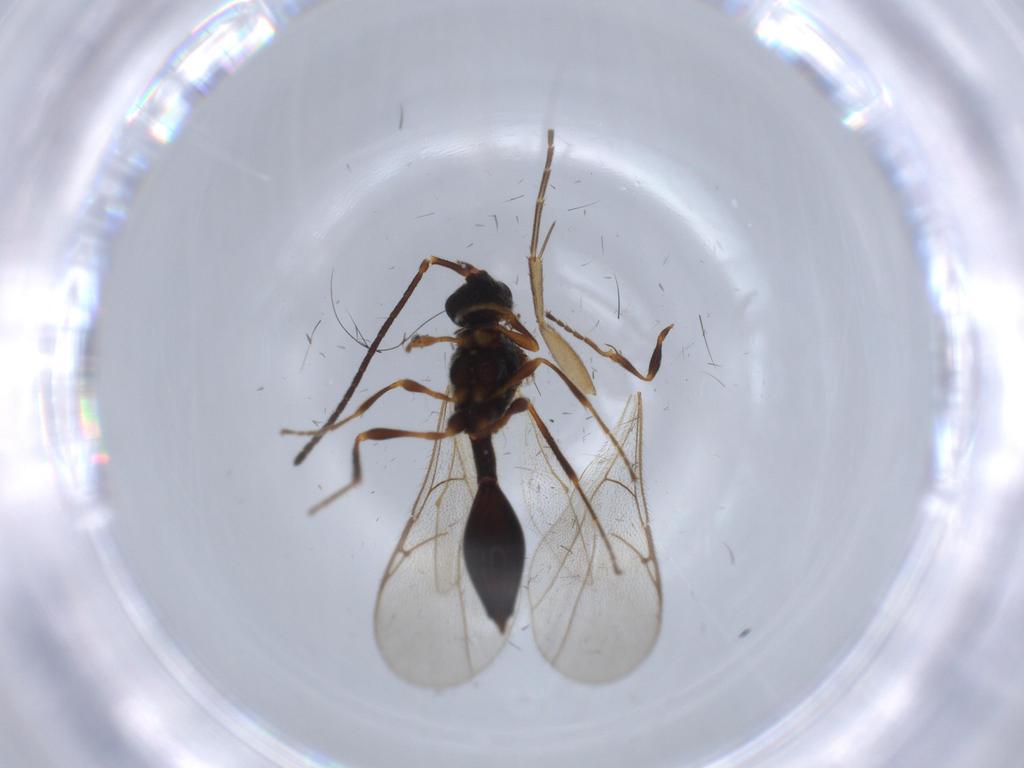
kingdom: Animalia
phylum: Arthropoda
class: Insecta
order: Hymenoptera
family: Diapriidae
